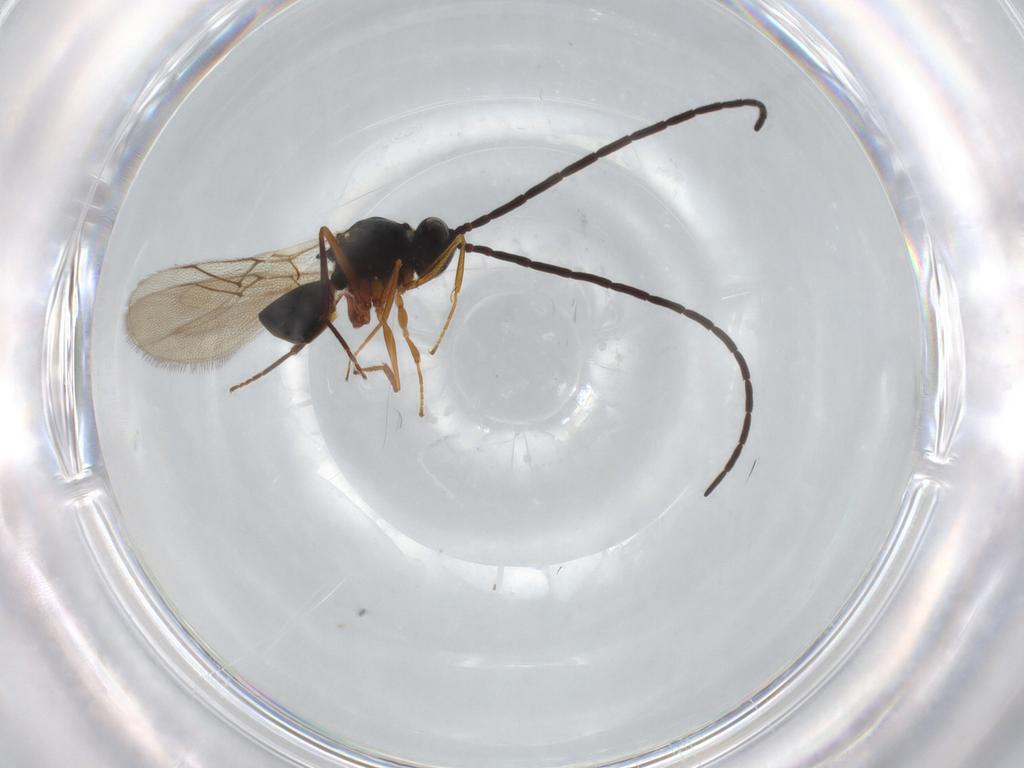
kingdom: Animalia
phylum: Arthropoda
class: Insecta
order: Hymenoptera
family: Figitidae
